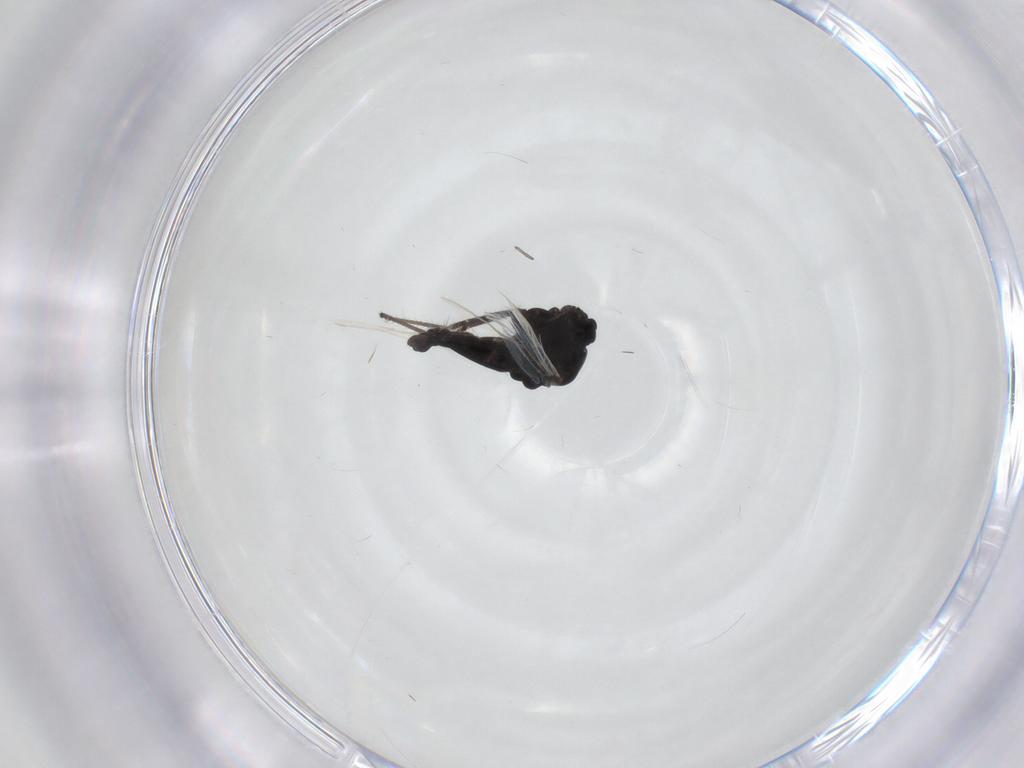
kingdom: Animalia
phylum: Arthropoda
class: Insecta
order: Diptera
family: Chironomidae
